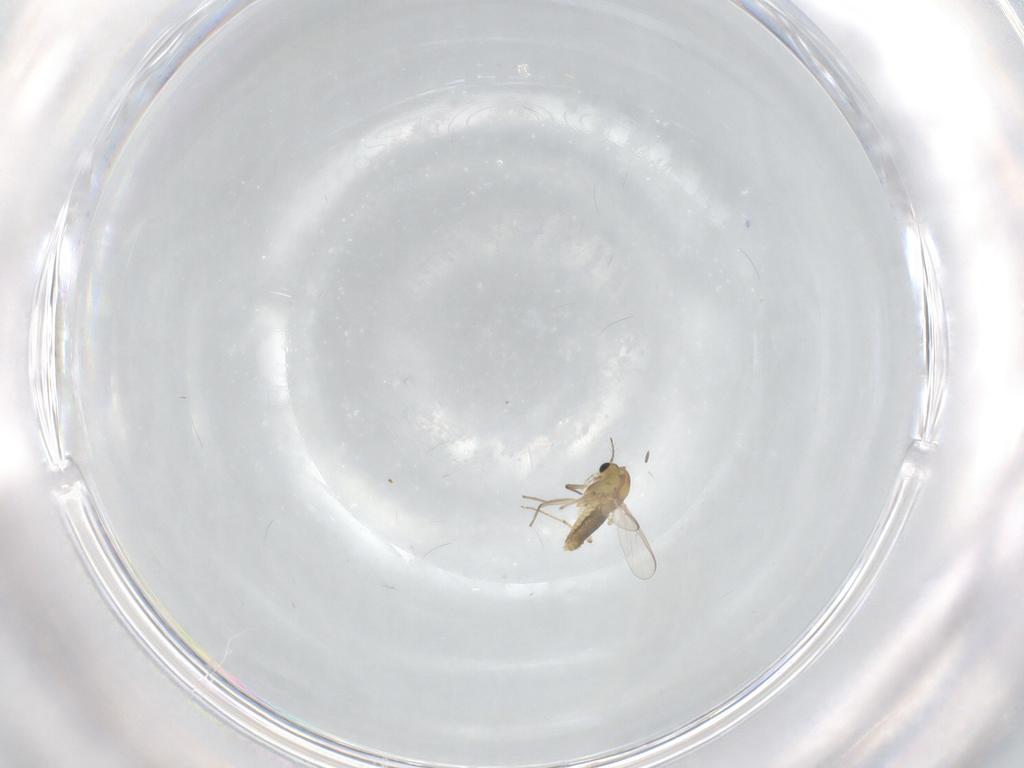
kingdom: Animalia
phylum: Arthropoda
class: Insecta
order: Diptera
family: Chironomidae
